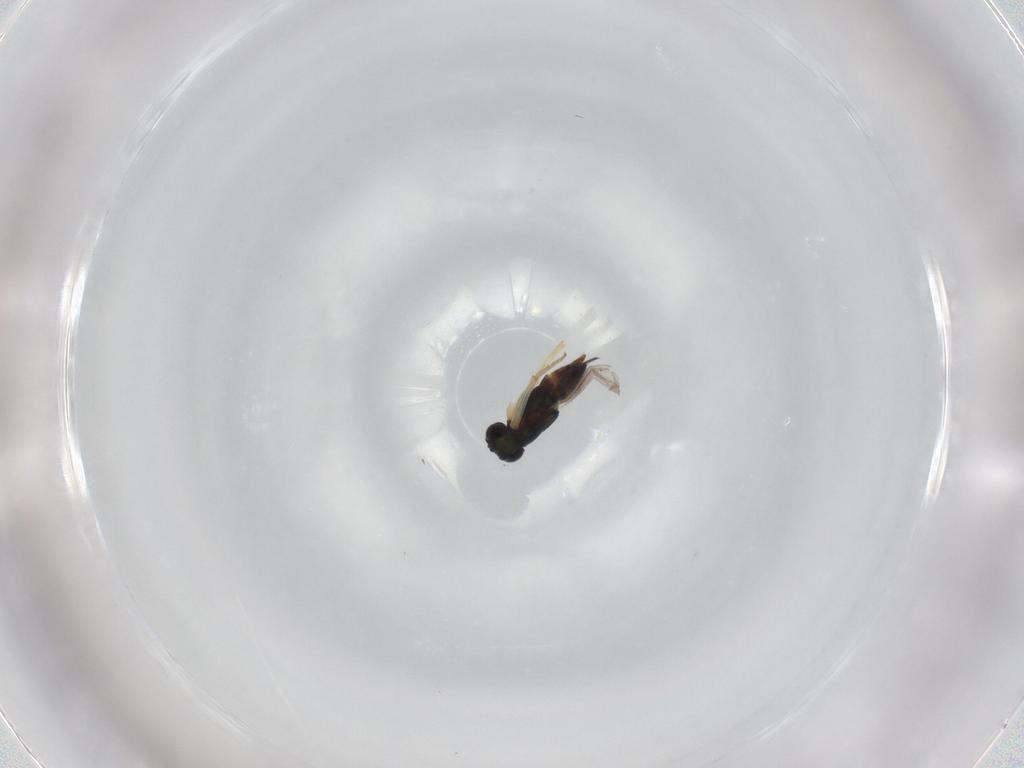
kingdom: Animalia
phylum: Arthropoda
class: Insecta
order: Hymenoptera
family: Encyrtidae
